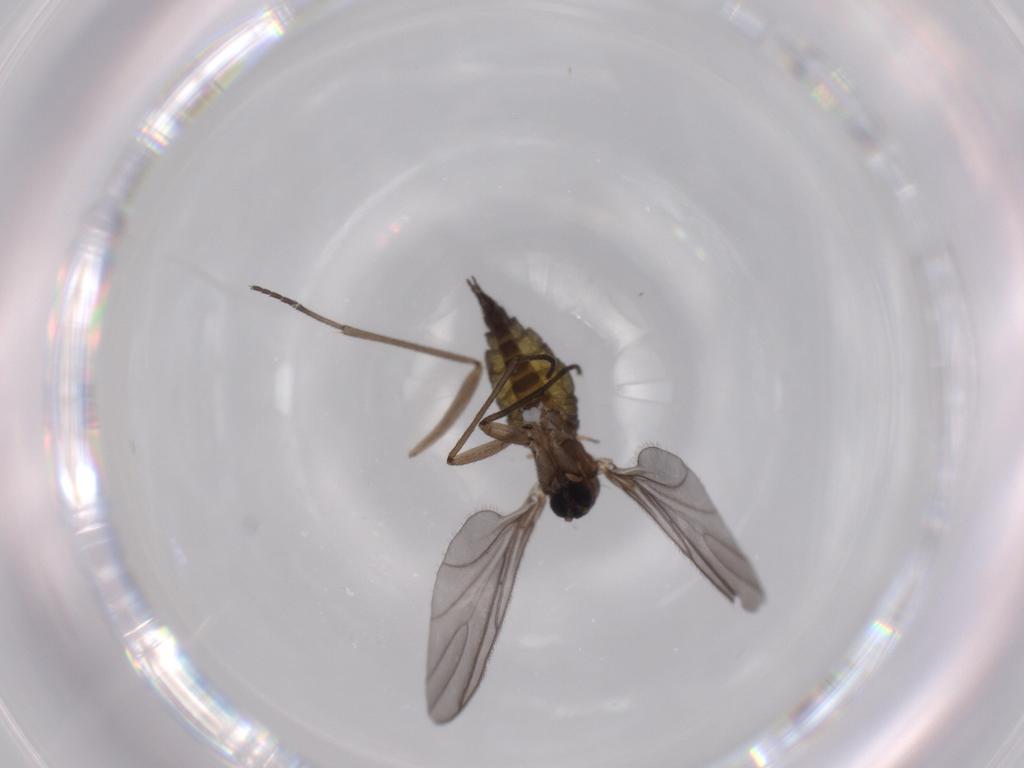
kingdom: Animalia
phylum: Arthropoda
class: Insecta
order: Diptera
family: Sciaridae
